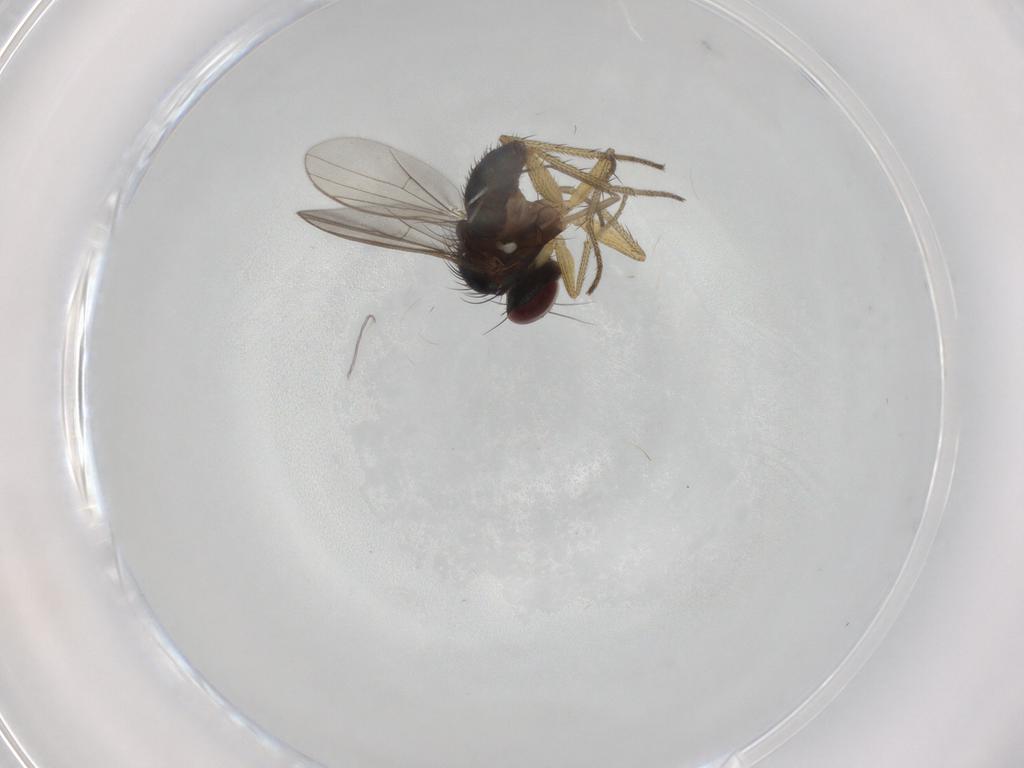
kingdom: Animalia
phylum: Arthropoda
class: Insecta
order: Diptera
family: Dolichopodidae
